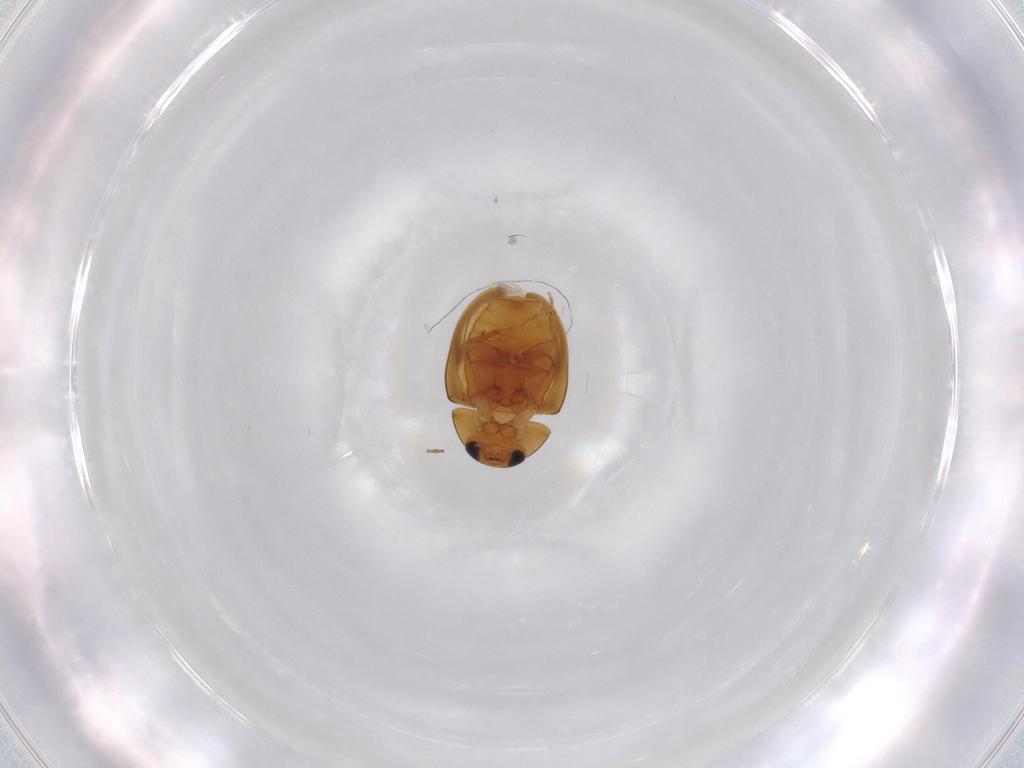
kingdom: Animalia
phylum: Arthropoda
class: Insecta
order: Coleoptera
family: Phalacridae
